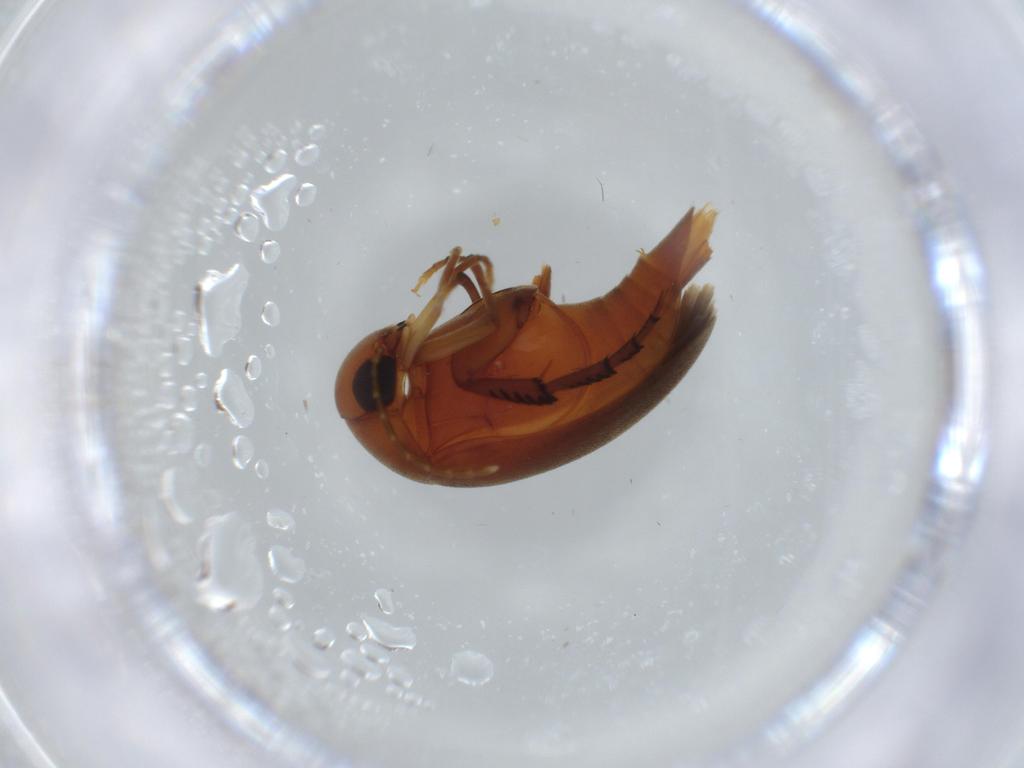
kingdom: Animalia
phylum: Arthropoda
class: Insecta
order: Coleoptera
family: Mordellidae
